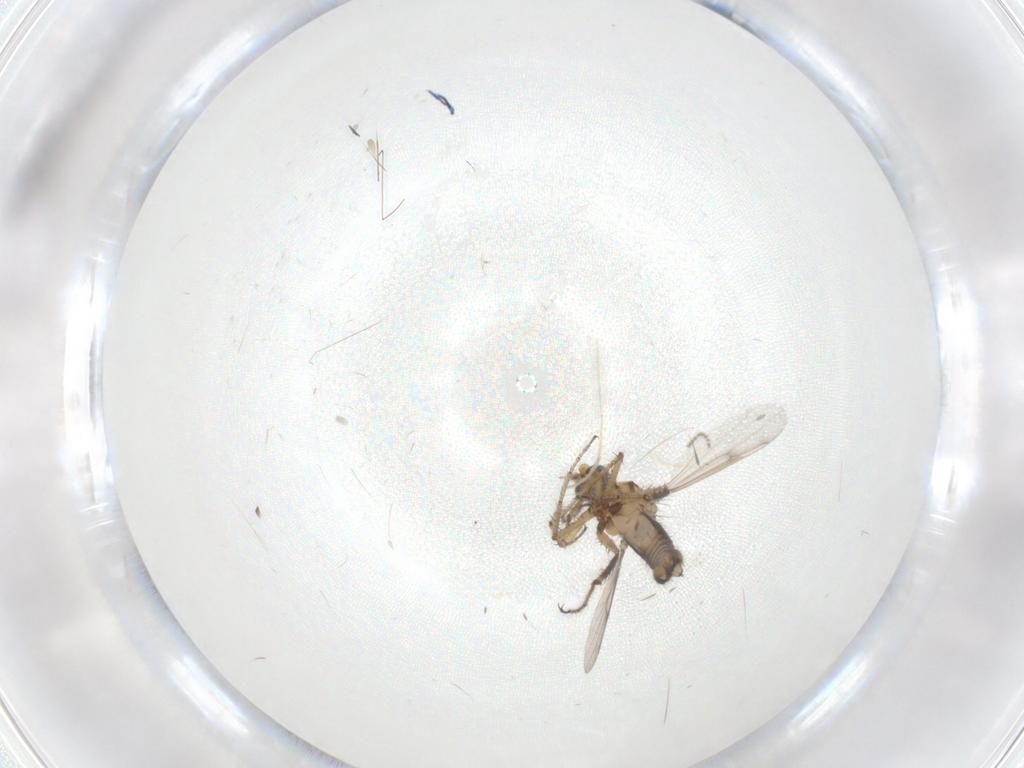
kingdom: Animalia
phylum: Arthropoda
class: Insecta
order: Diptera
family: Chironomidae
